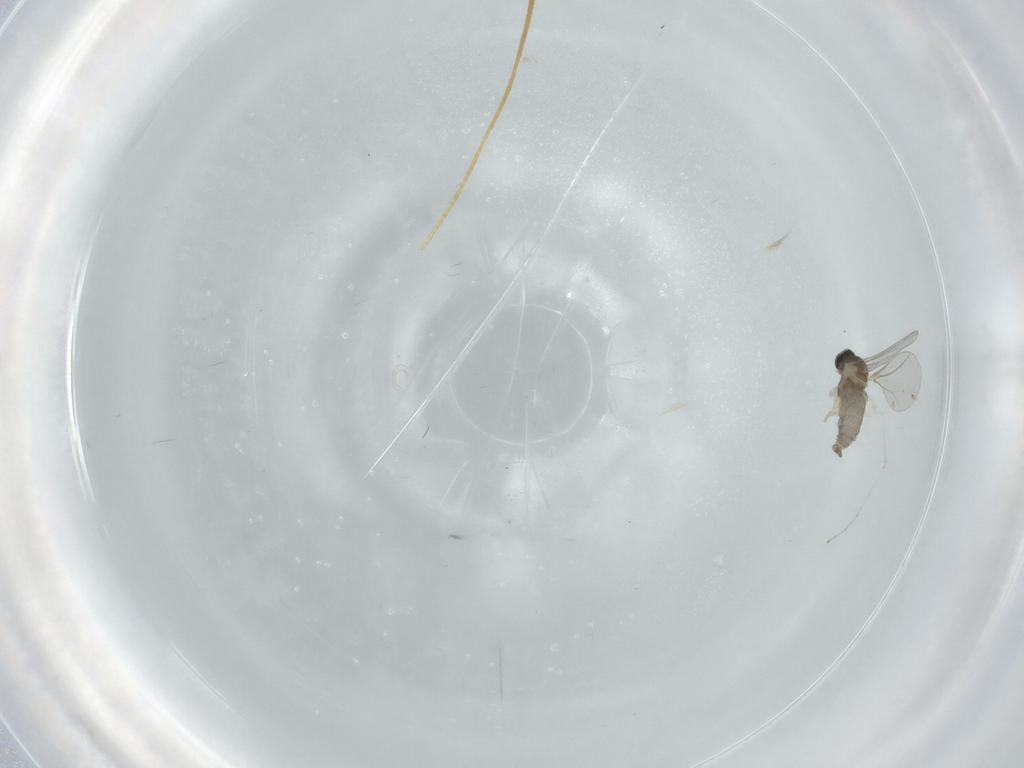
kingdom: Animalia
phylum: Arthropoda
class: Insecta
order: Diptera
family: Cecidomyiidae
